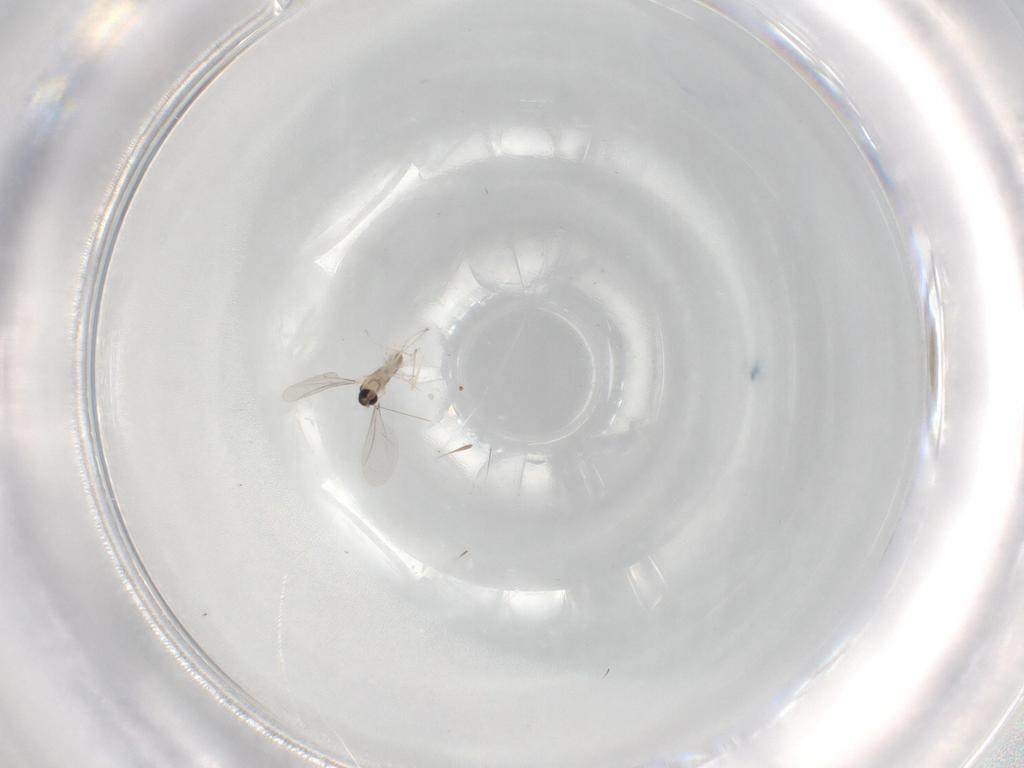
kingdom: Animalia
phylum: Arthropoda
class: Insecta
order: Diptera
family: Cecidomyiidae
